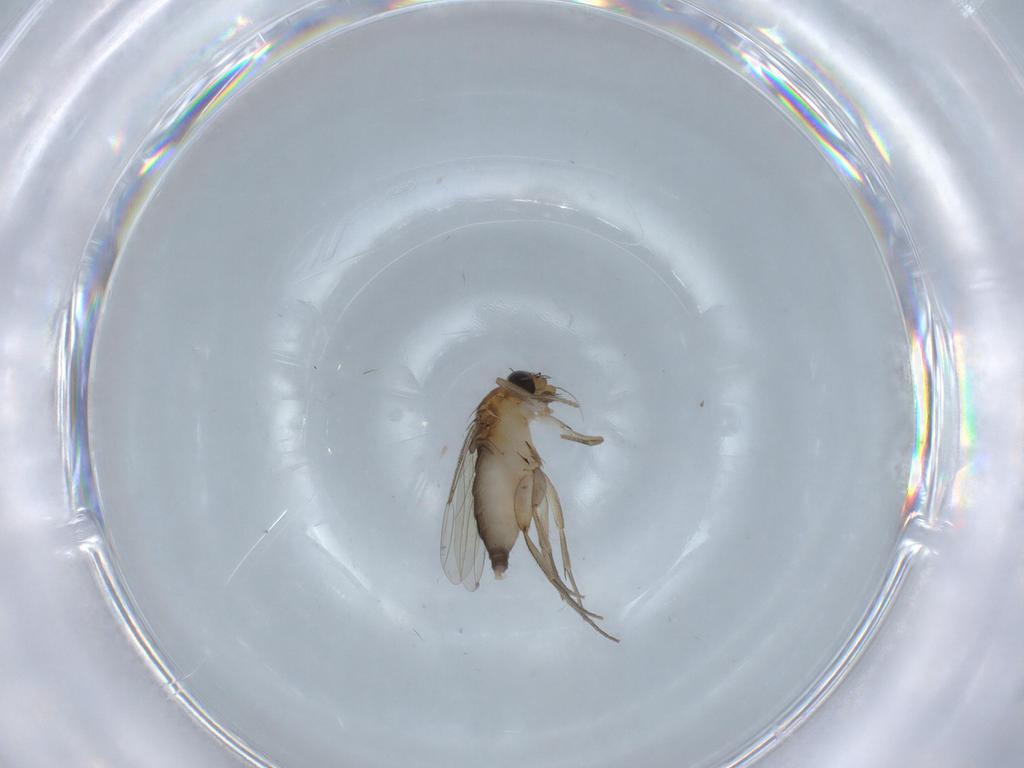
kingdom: Animalia
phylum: Arthropoda
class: Insecta
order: Diptera
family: Phoridae
